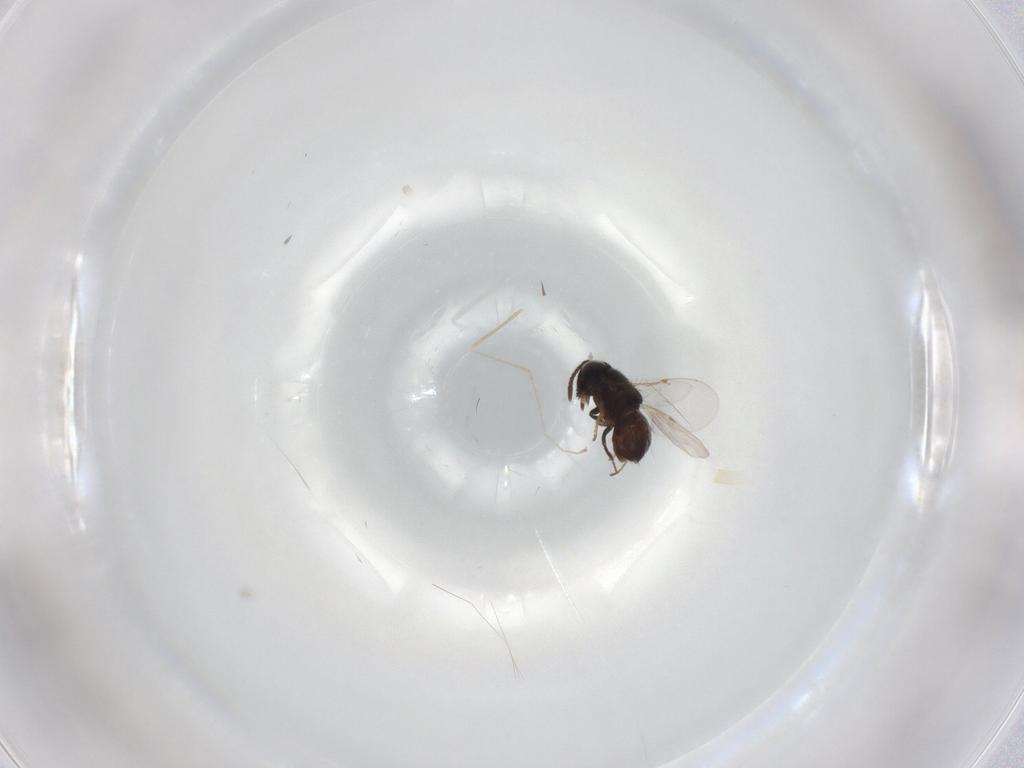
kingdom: Animalia
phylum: Arthropoda
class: Insecta
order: Diptera
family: Cecidomyiidae
